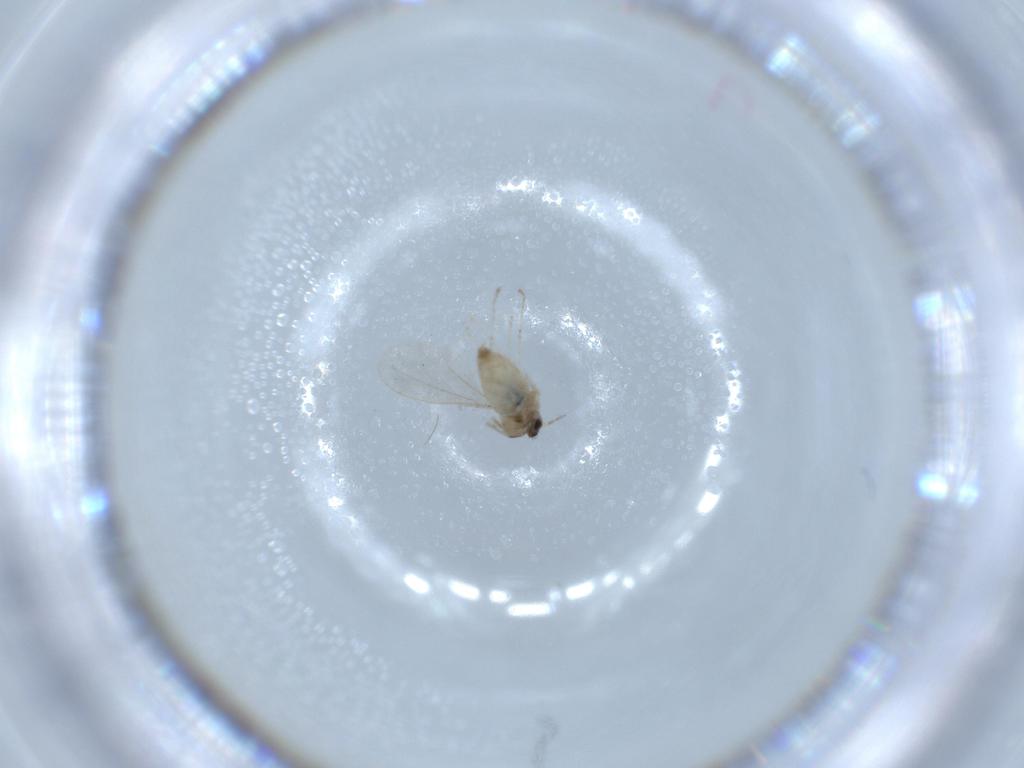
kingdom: Animalia
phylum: Arthropoda
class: Insecta
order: Diptera
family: Cecidomyiidae
